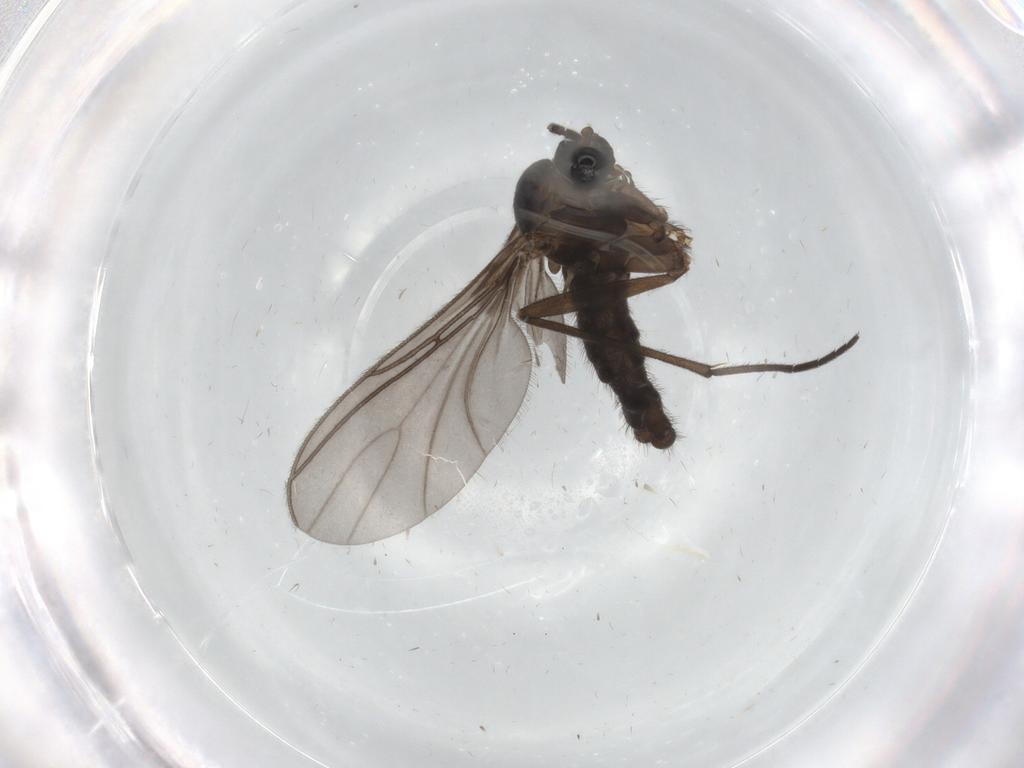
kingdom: Animalia
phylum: Arthropoda
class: Insecta
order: Diptera
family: Sciaridae
